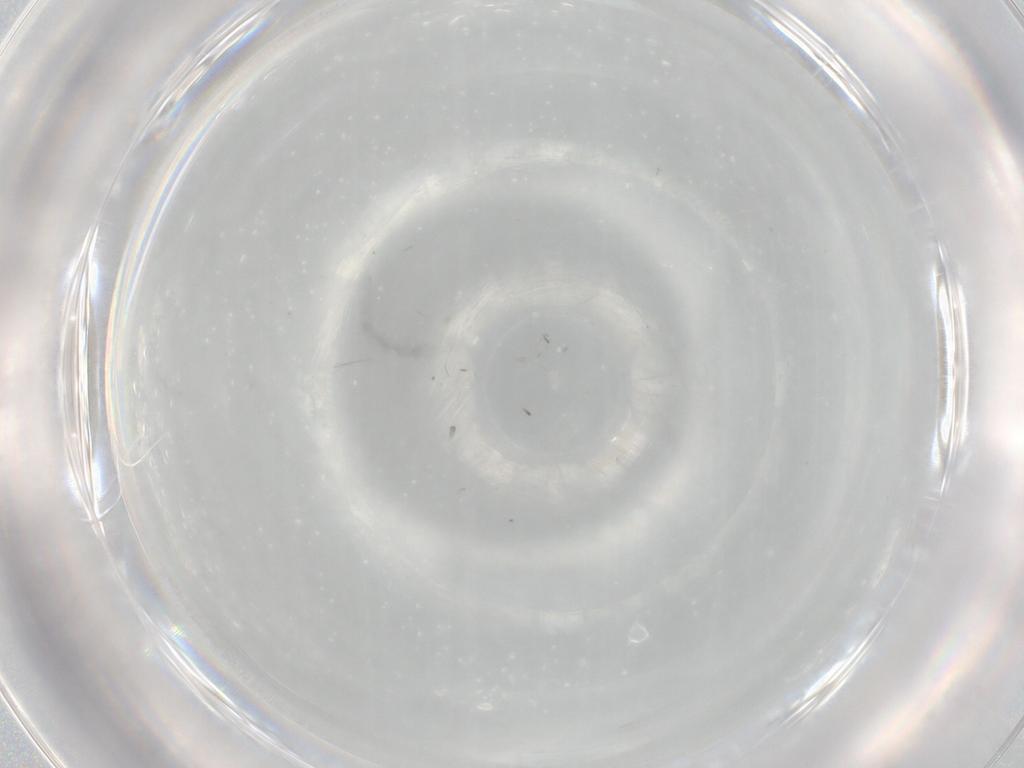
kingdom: Animalia
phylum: Arthropoda
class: Insecta
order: Hemiptera
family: Cercopidae
